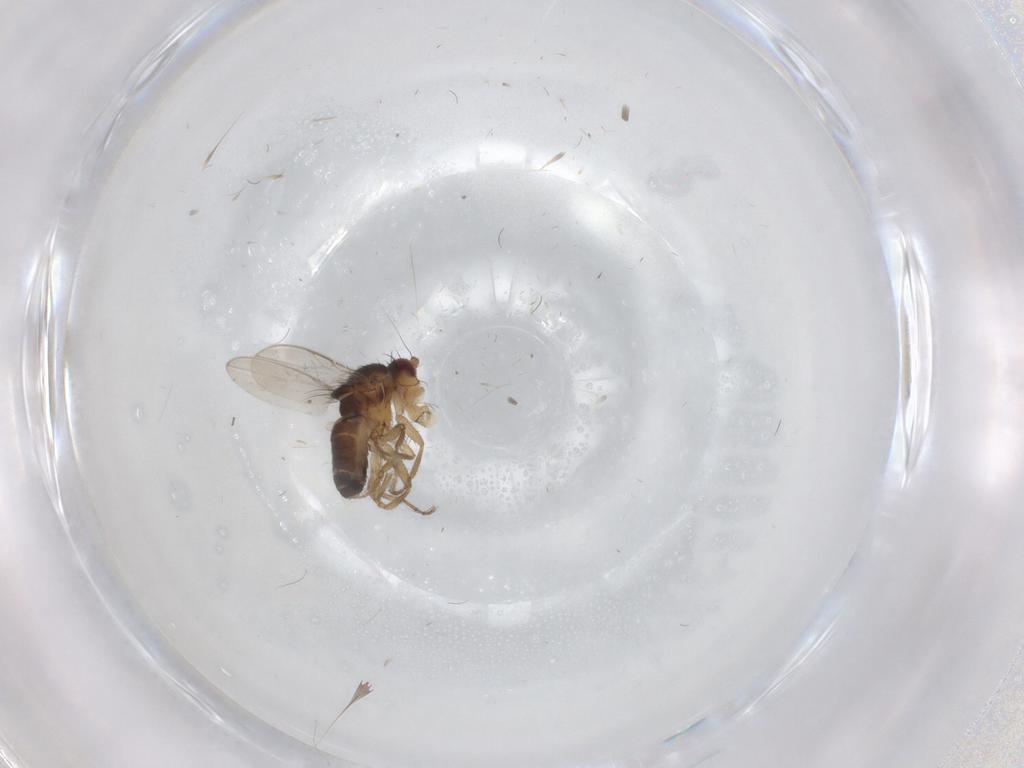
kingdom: Animalia
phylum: Arthropoda
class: Insecta
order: Diptera
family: Sphaeroceridae
